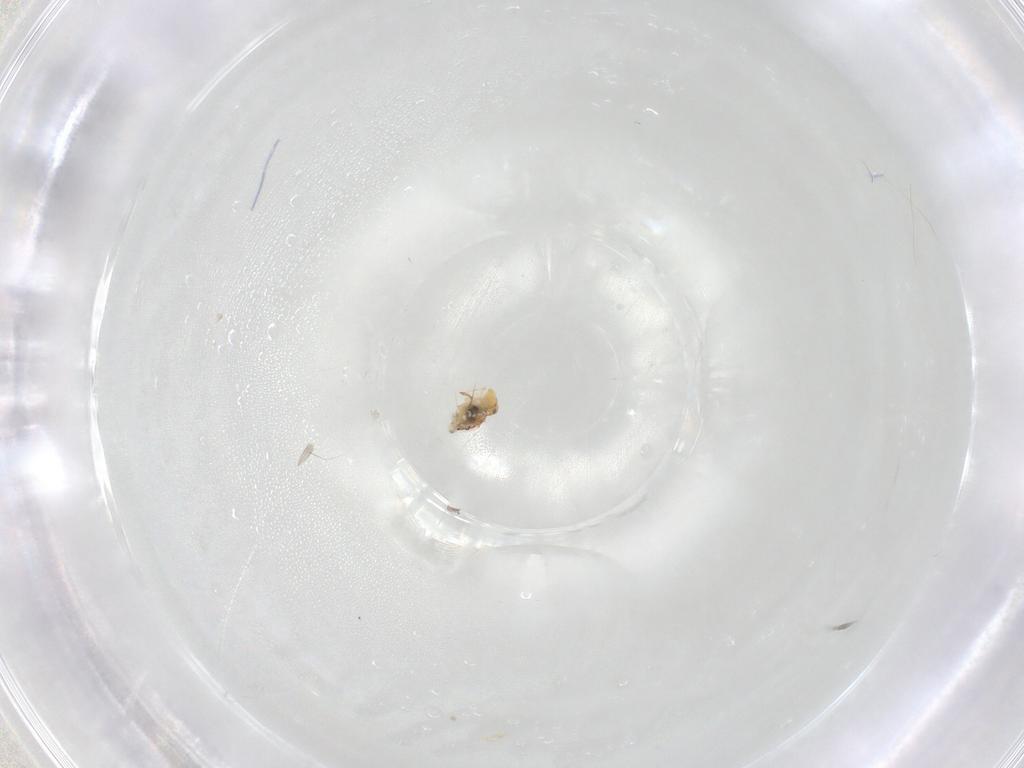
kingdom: Animalia
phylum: Arthropoda
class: Collembola
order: Symphypleona
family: Bourletiellidae
